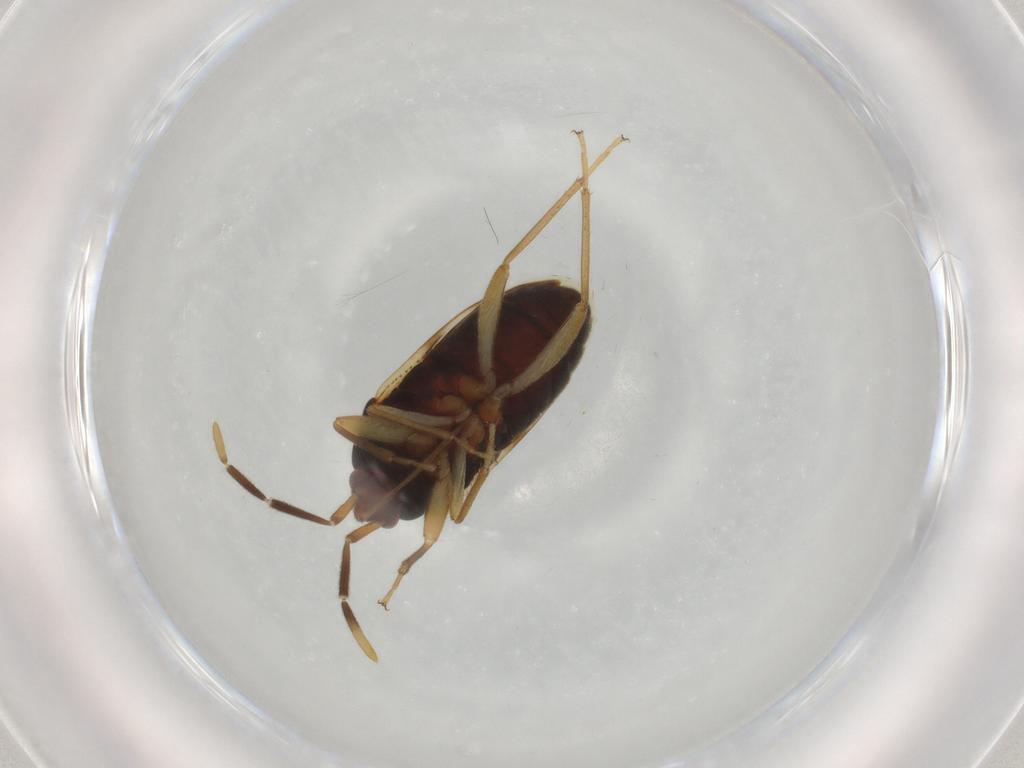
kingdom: Animalia
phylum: Arthropoda
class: Insecta
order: Hemiptera
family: Rhyparochromidae
